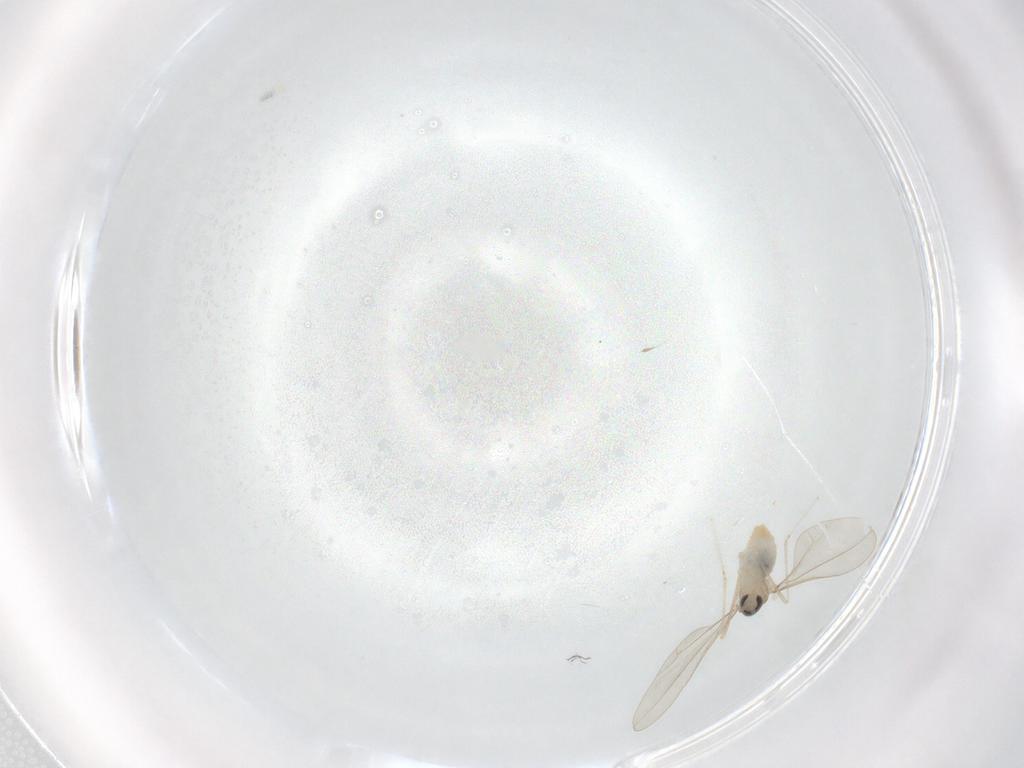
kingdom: Animalia
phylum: Arthropoda
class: Insecta
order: Diptera
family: Cecidomyiidae
